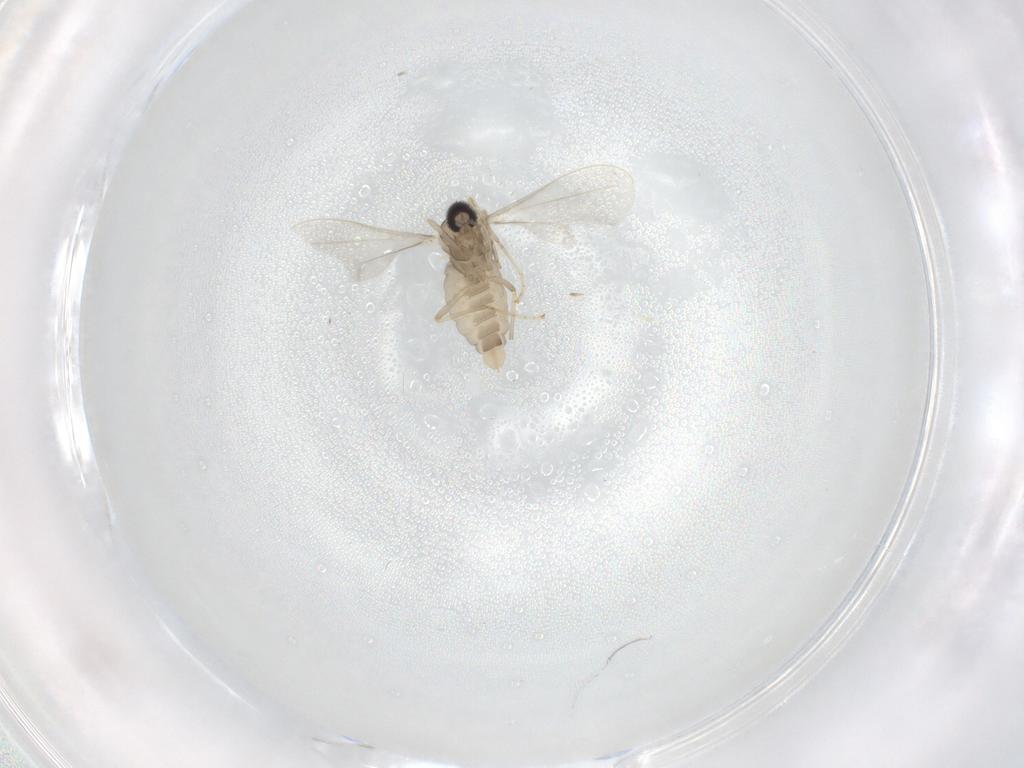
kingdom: Animalia
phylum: Arthropoda
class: Insecta
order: Diptera
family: Cecidomyiidae
